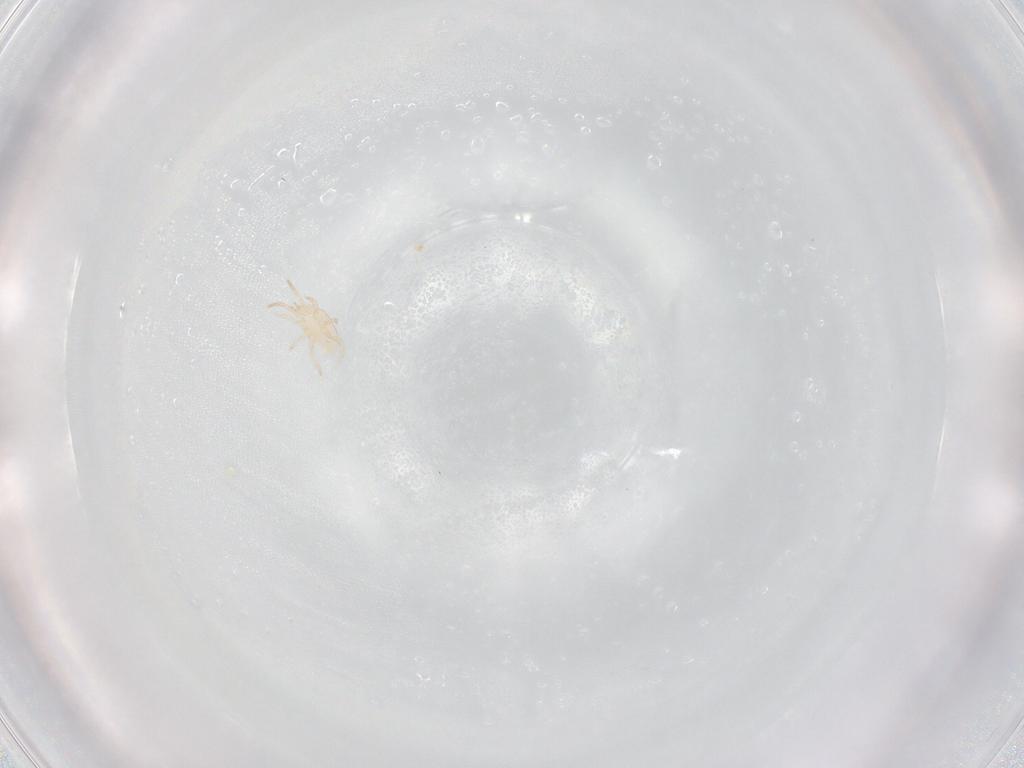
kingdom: Animalia
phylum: Arthropoda
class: Arachnida
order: Mesostigmata
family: Laelapidae
